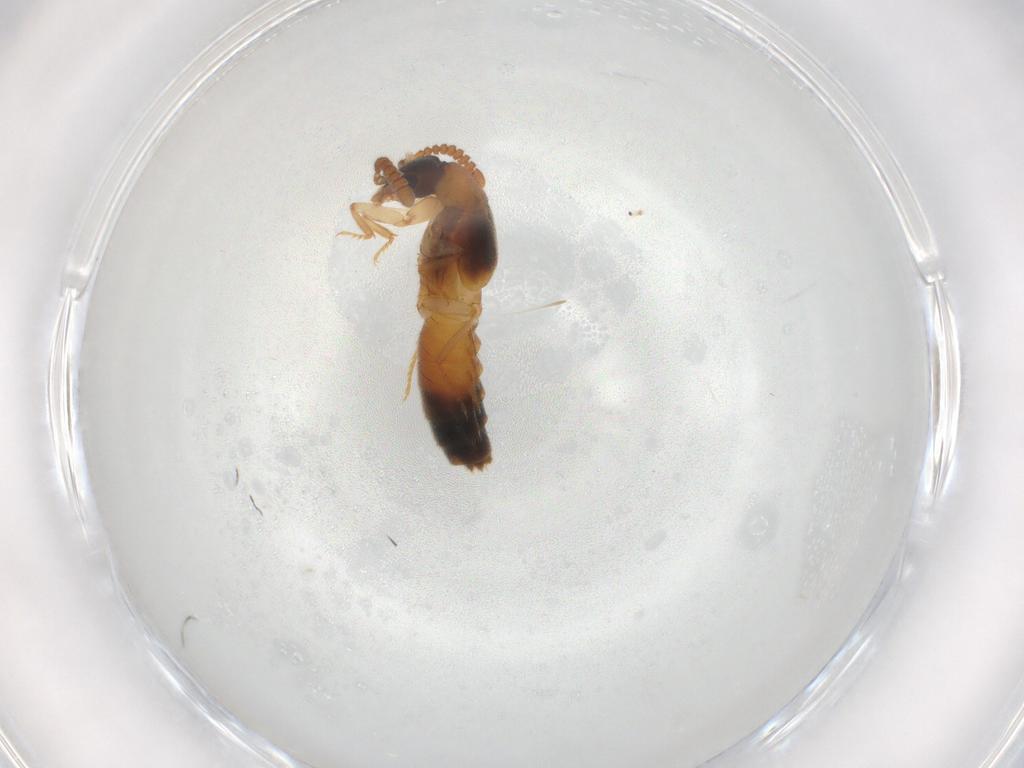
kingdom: Animalia
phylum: Arthropoda
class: Insecta
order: Coleoptera
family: Staphylinidae
